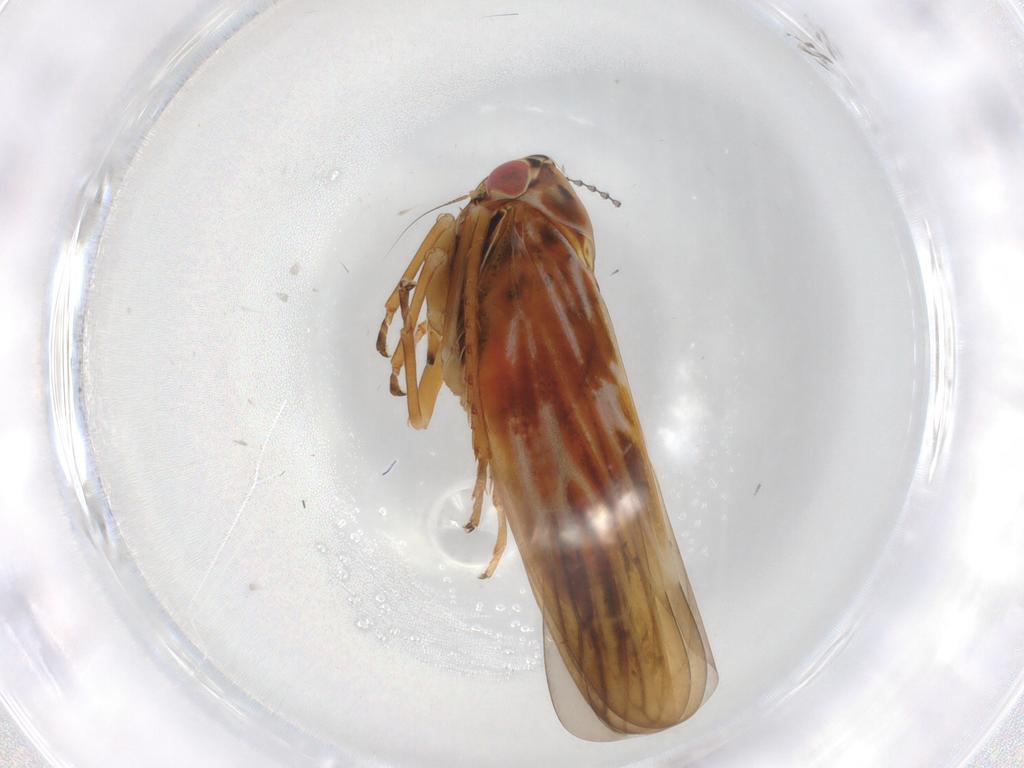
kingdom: Animalia
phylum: Arthropoda
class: Insecta
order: Hemiptera
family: Cicadellidae
